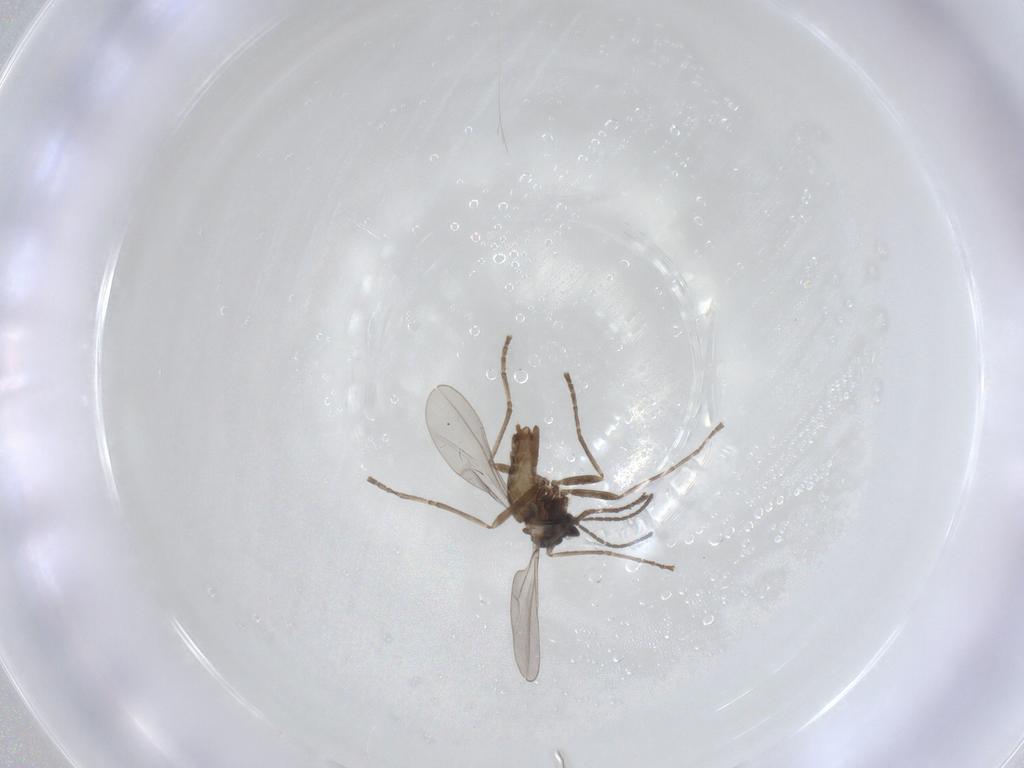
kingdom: Animalia
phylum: Arthropoda
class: Insecta
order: Diptera
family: Cecidomyiidae
